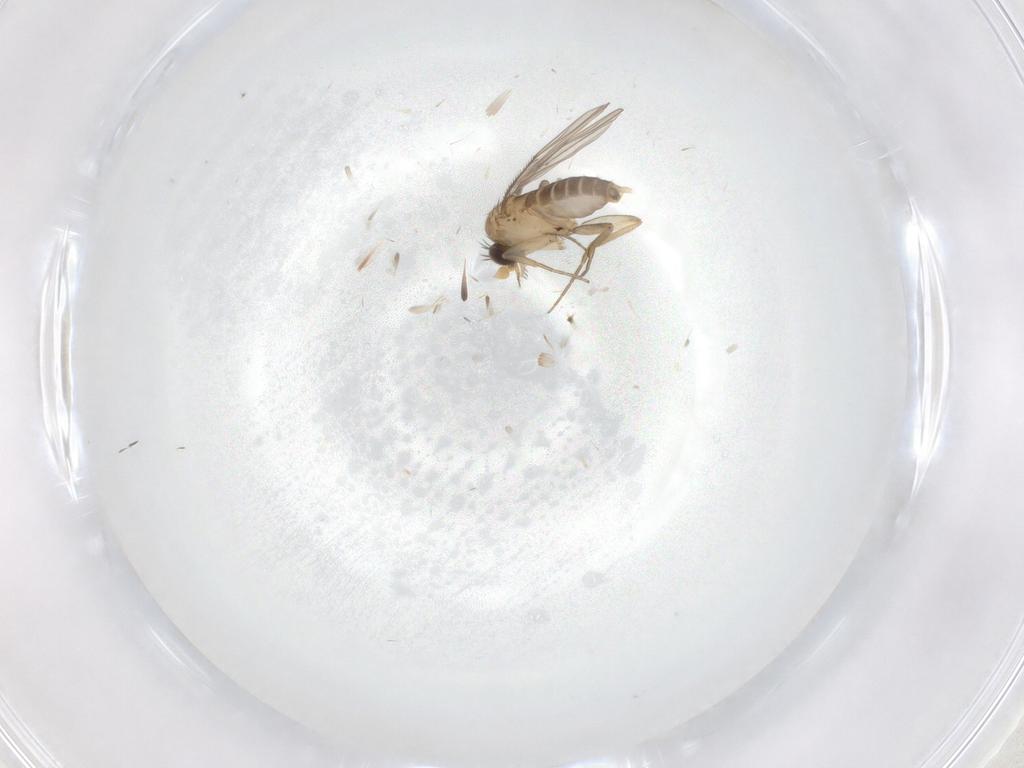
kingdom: Animalia
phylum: Arthropoda
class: Insecta
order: Diptera
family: Phoridae
